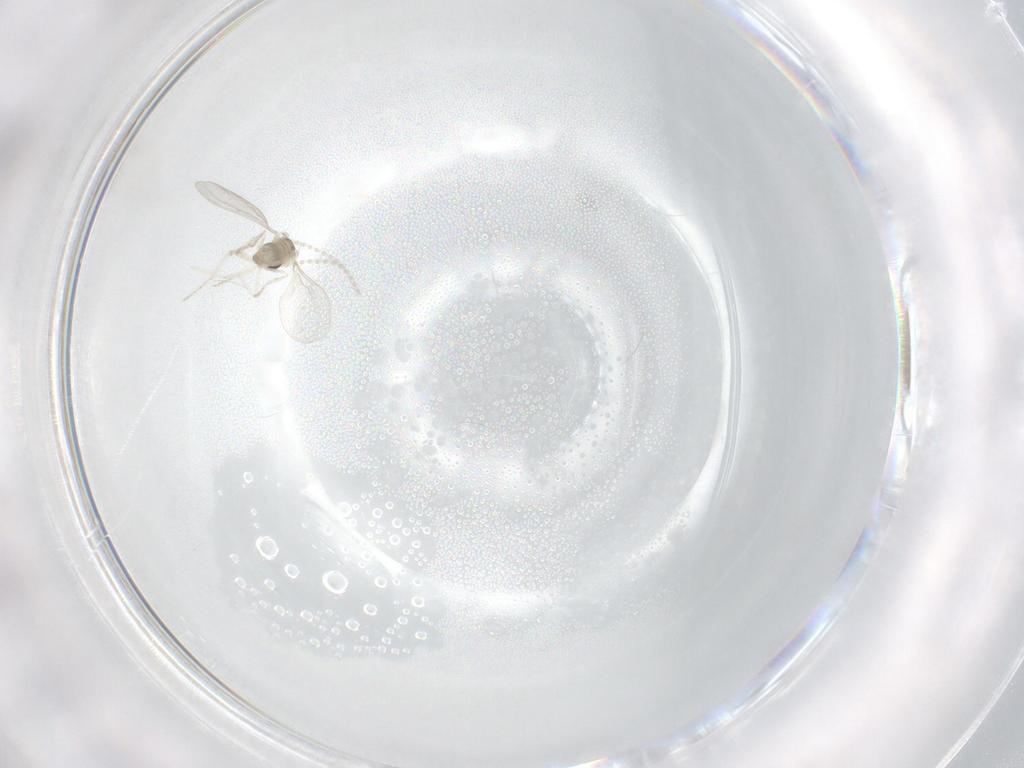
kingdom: Animalia
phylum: Arthropoda
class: Insecta
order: Diptera
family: Cecidomyiidae
